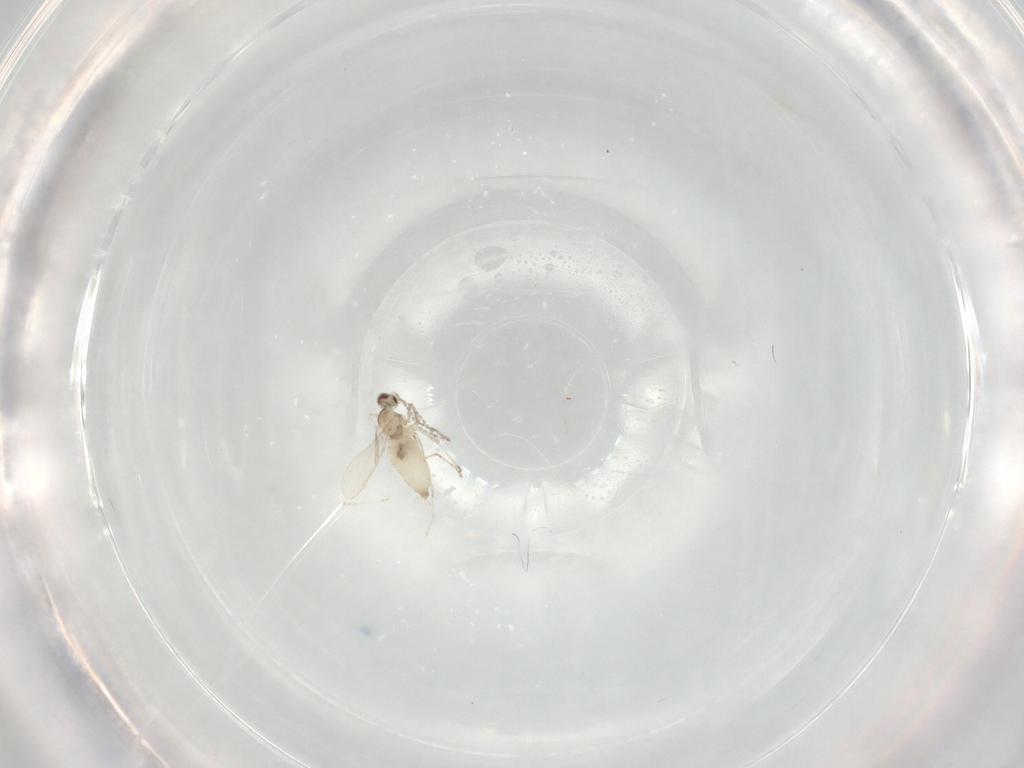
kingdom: Animalia
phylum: Arthropoda
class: Insecta
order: Diptera
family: Cecidomyiidae
